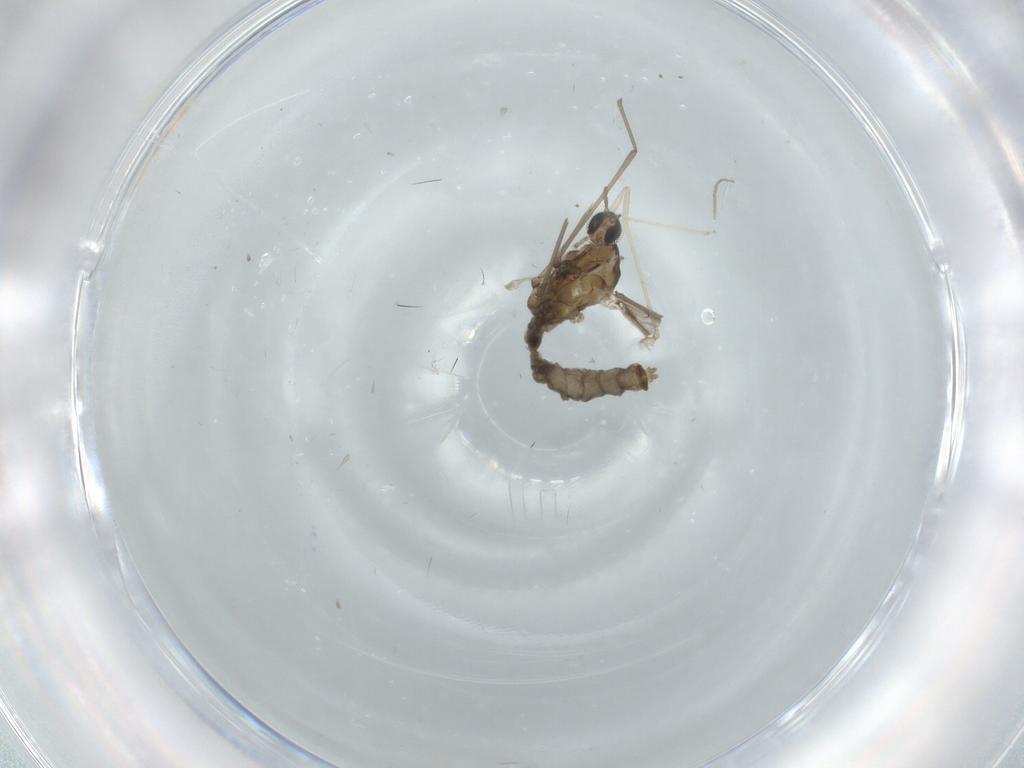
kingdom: Animalia
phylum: Arthropoda
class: Insecta
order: Diptera
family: Cecidomyiidae
